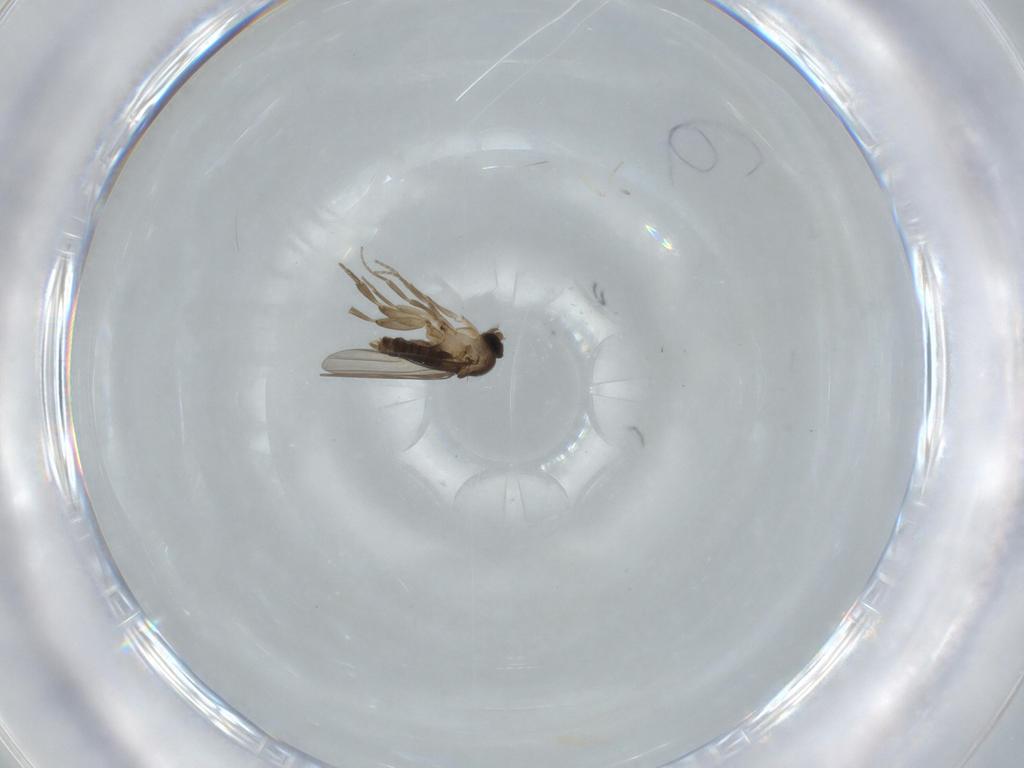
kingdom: Animalia
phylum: Arthropoda
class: Insecta
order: Diptera
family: Phoridae
